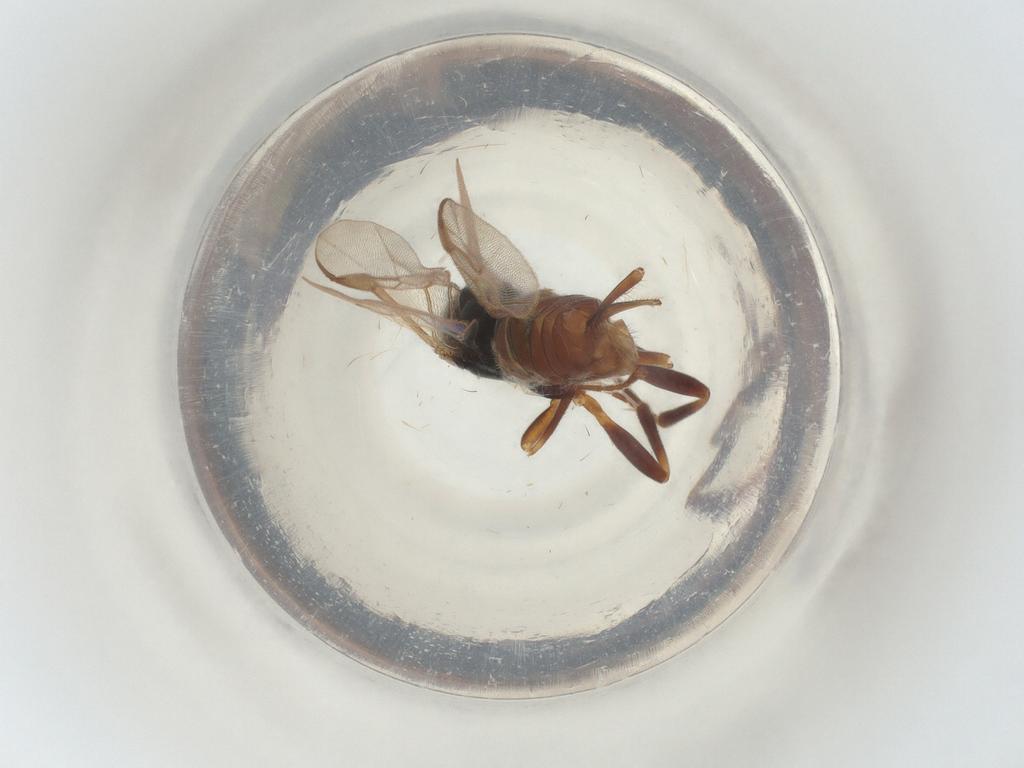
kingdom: Animalia
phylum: Arthropoda
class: Insecta
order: Hymenoptera
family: Braconidae
